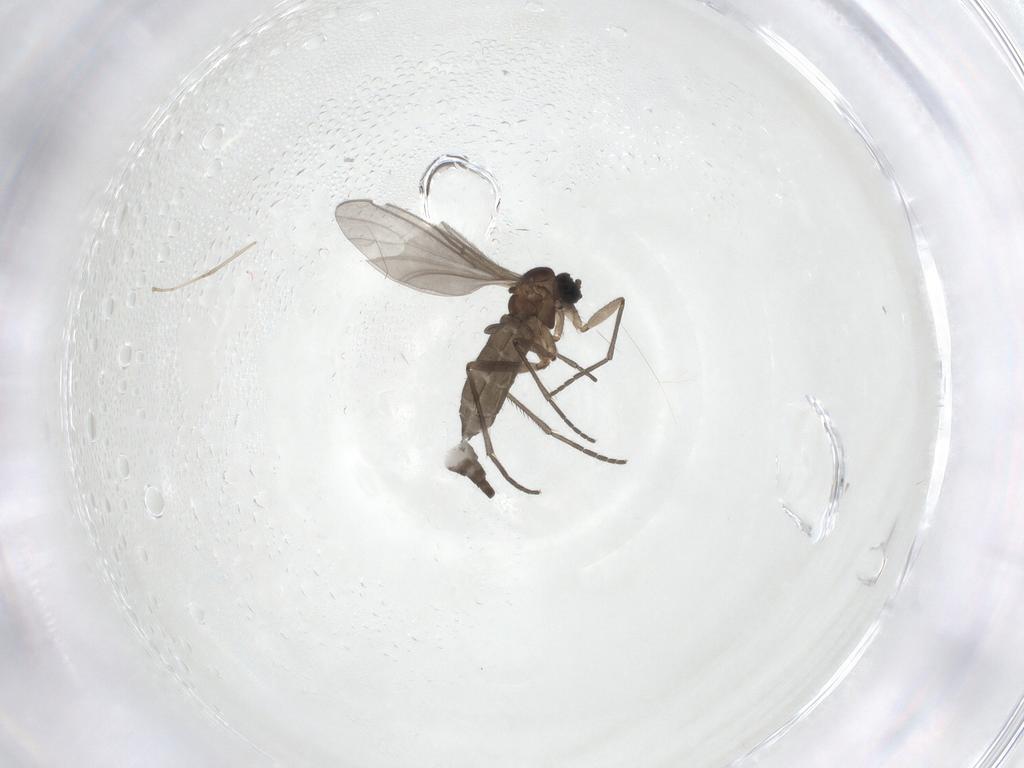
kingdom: Animalia
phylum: Arthropoda
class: Insecta
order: Diptera
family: Sciaridae
